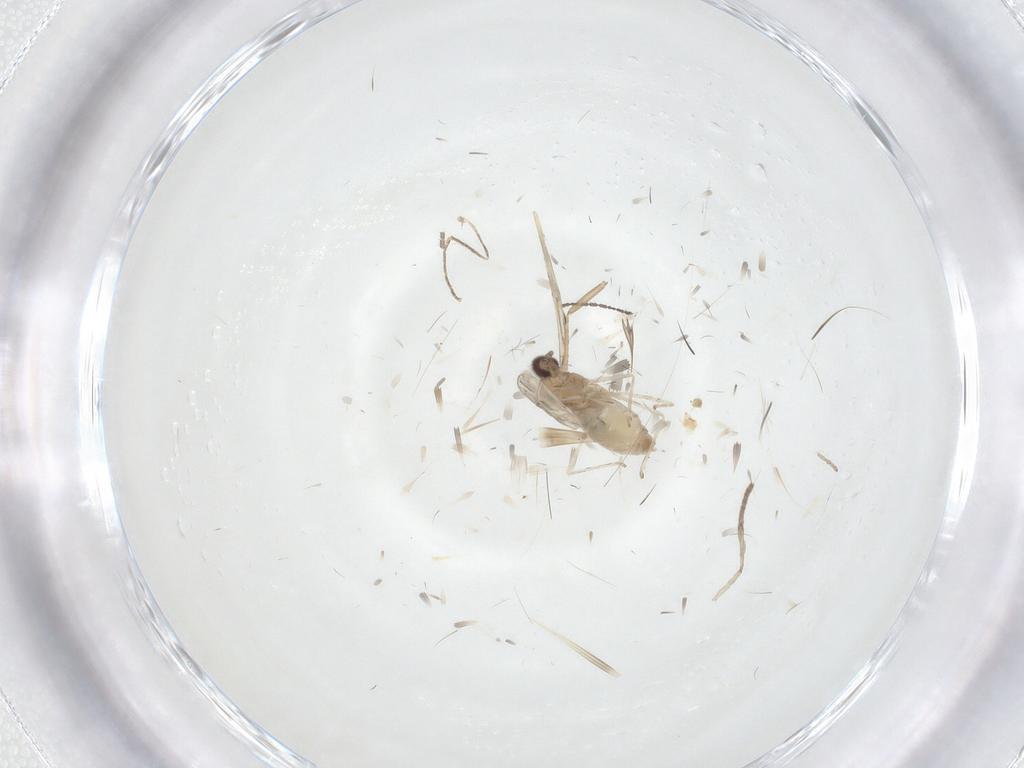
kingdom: Animalia
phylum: Arthropoda
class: Insecta
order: Diptera
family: Cecidomyiidae
